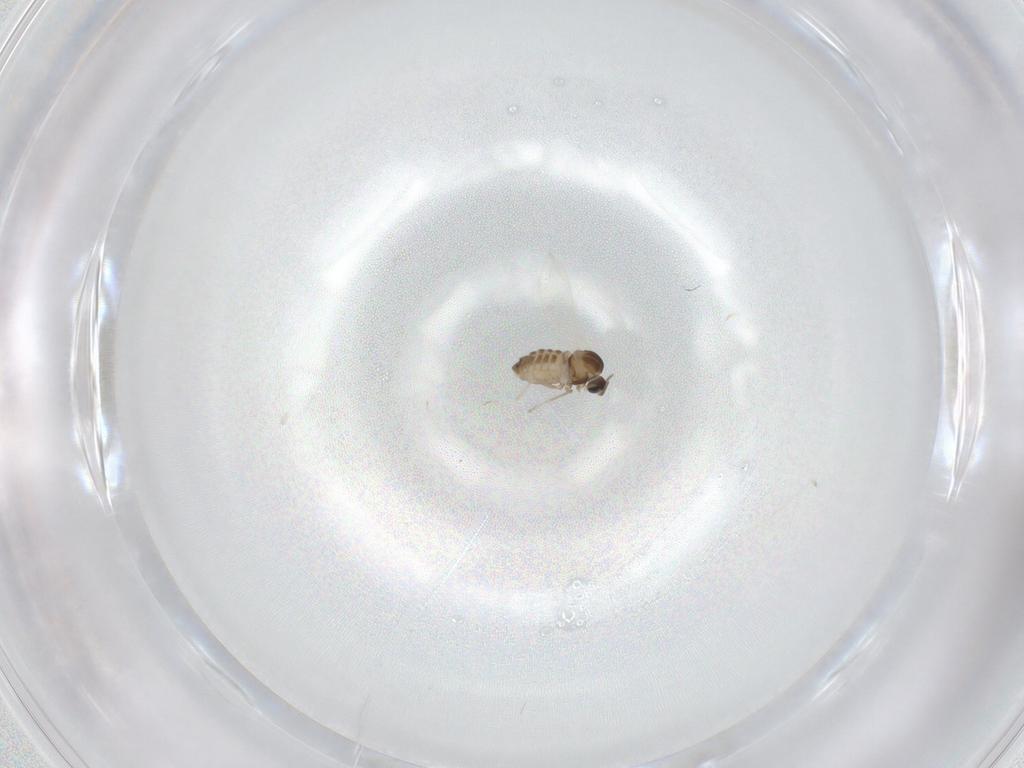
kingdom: Animalia
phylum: Arthropoda
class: Insecta
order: Diptera
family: Cecidomyiidae
